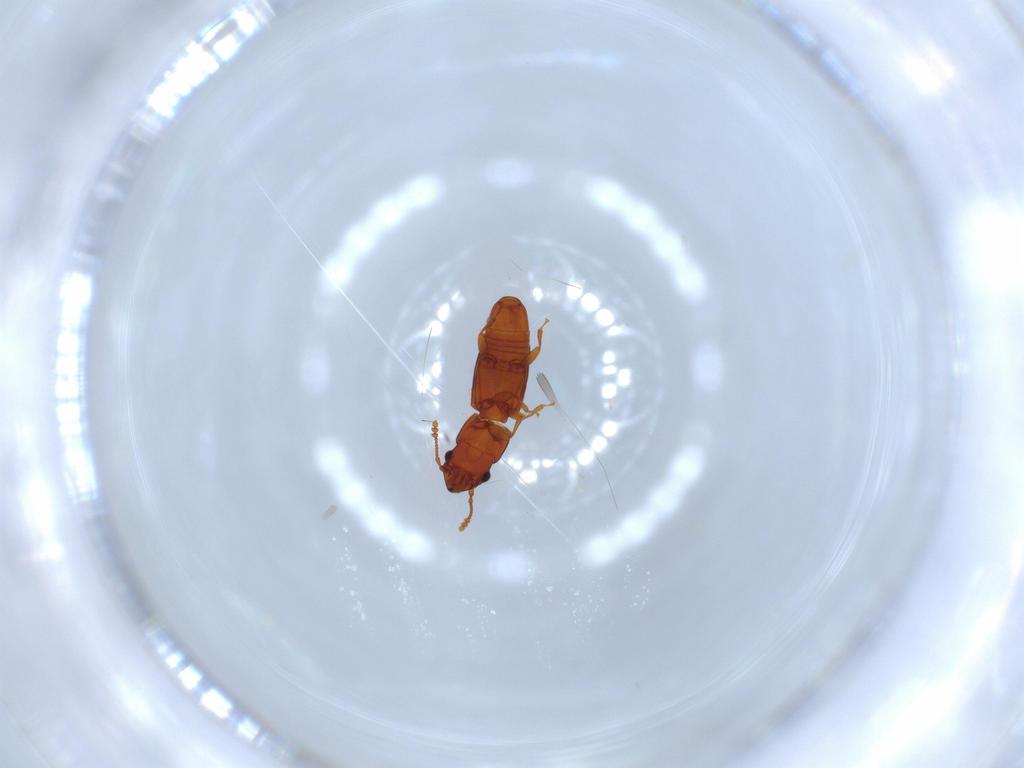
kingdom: Animalia
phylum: Arthropoda
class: Insecta
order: Coleoptera
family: Smicripidae
